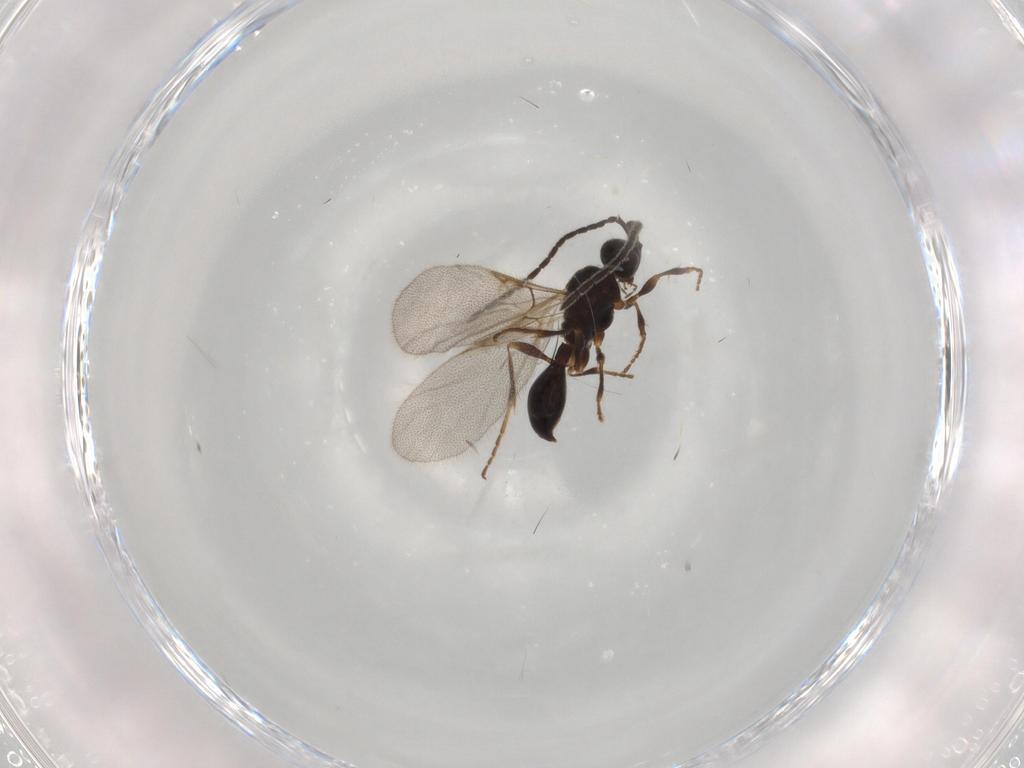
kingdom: Animalia
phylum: Arthropoda
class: Insecta
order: Hymenoptera
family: Diapriidae
